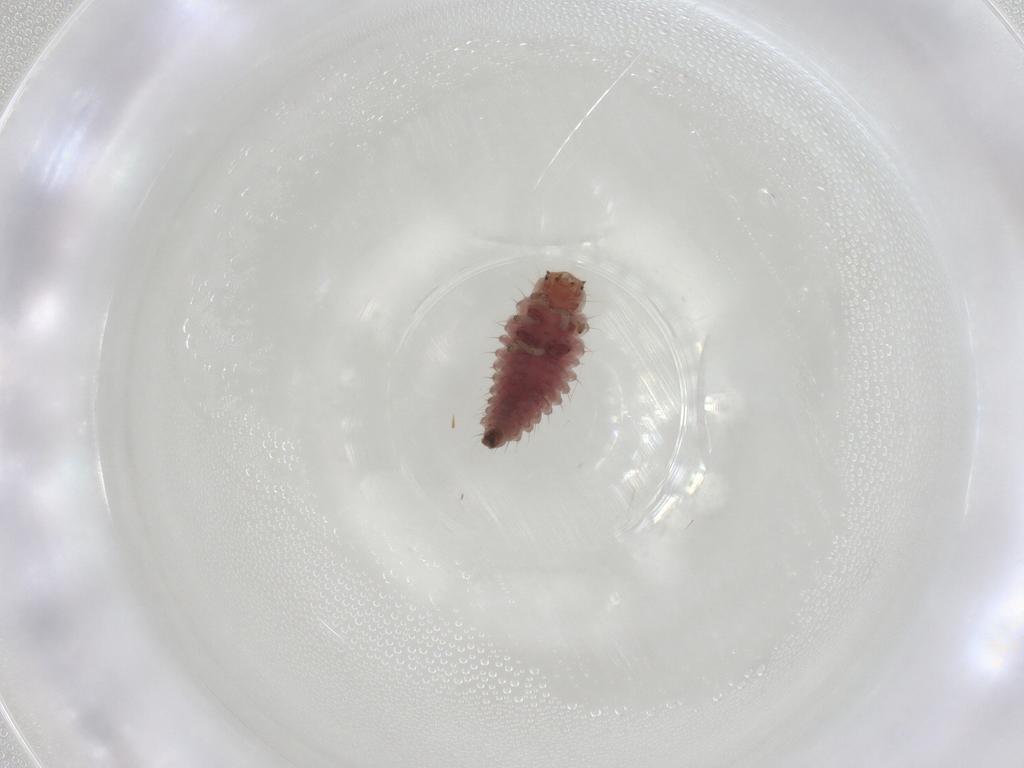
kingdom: Animalia
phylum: Arthropoda
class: Insecta
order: Coleoptera
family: Coccinellidae
